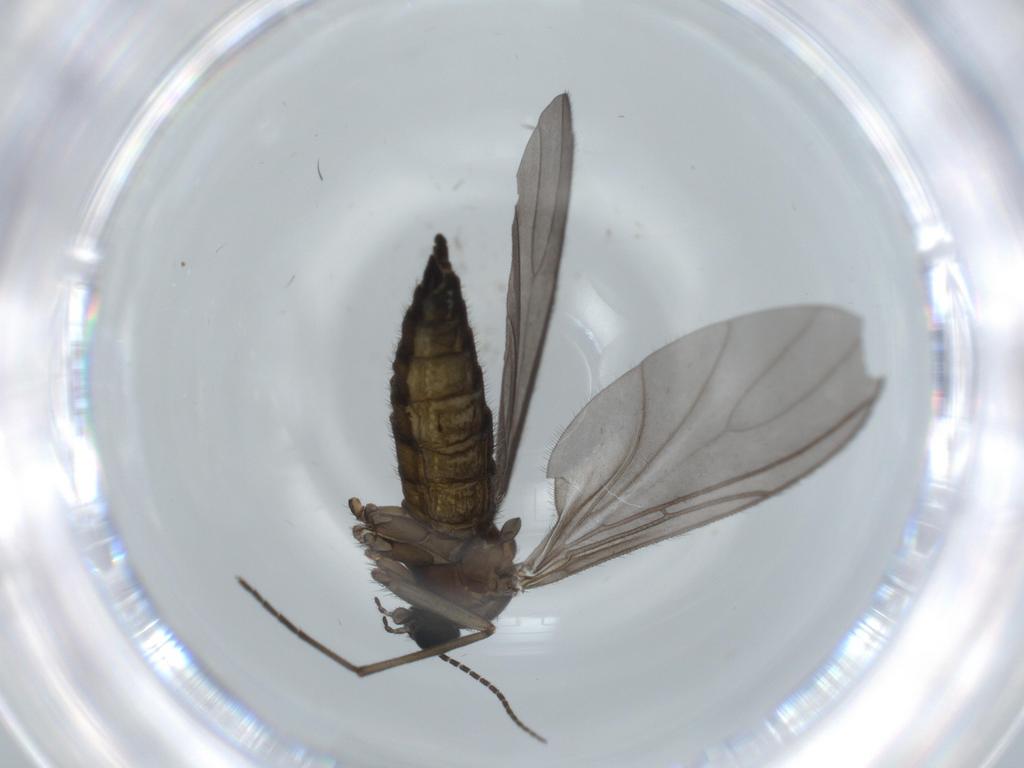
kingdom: Animalia
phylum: Arthropoda
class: Insecta
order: Diptera
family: Sciaridae
